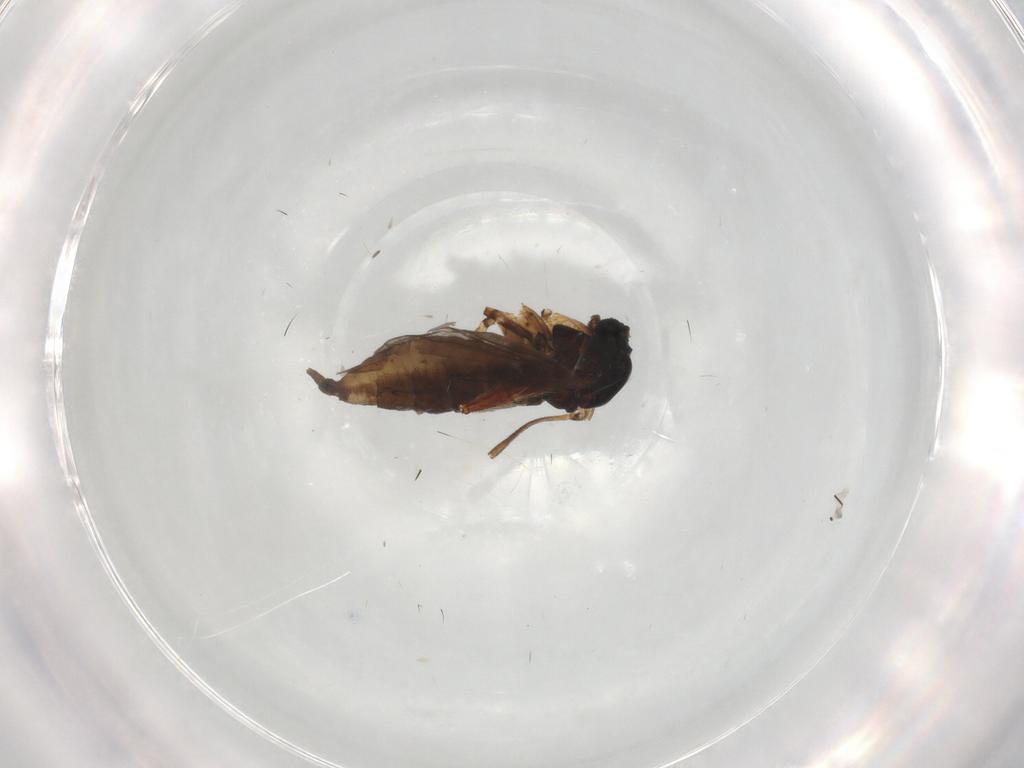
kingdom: Animalia
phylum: Arthropoda
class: Insecta
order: Diptera
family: Sciaridae
